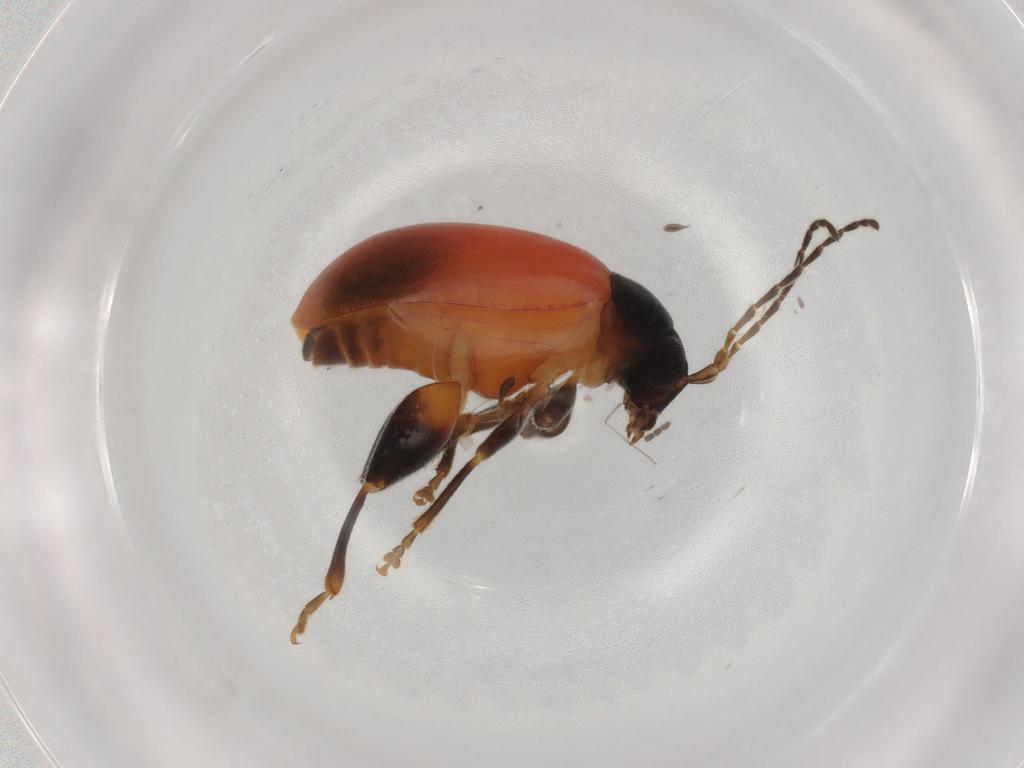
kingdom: Animalia
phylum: Arthropoda
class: Insecta
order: Coleoptera
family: Chrysomelidae
